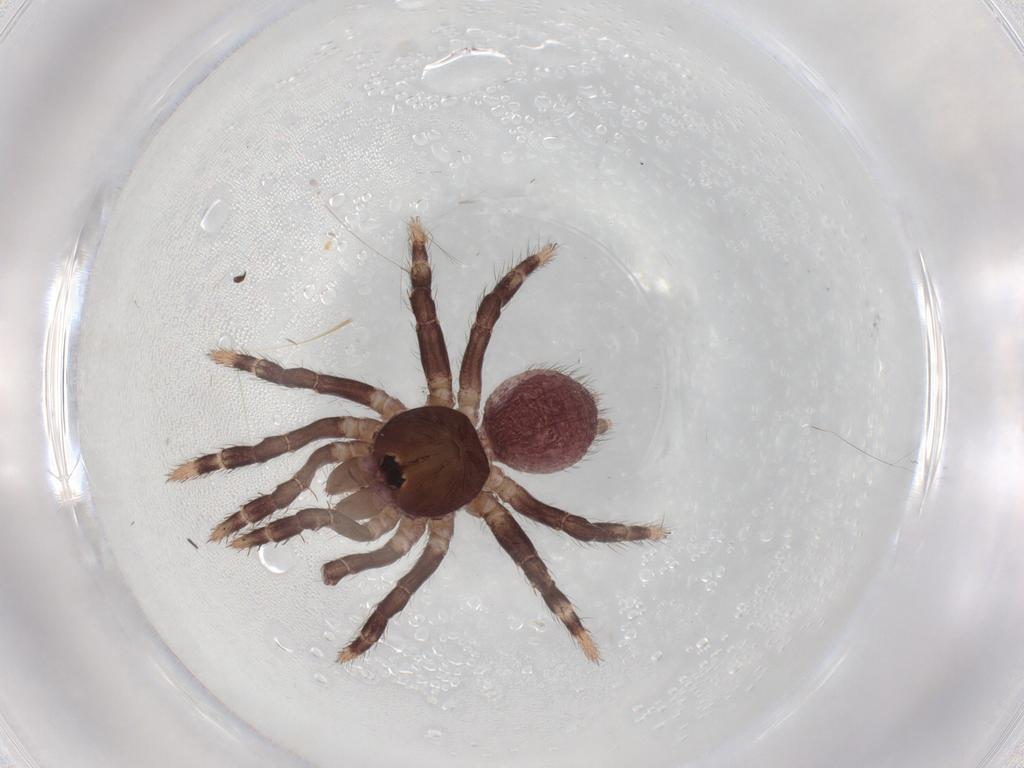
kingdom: Animalia
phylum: Arthropoda
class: Arachnida
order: Araneae
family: Halonoproctidae
